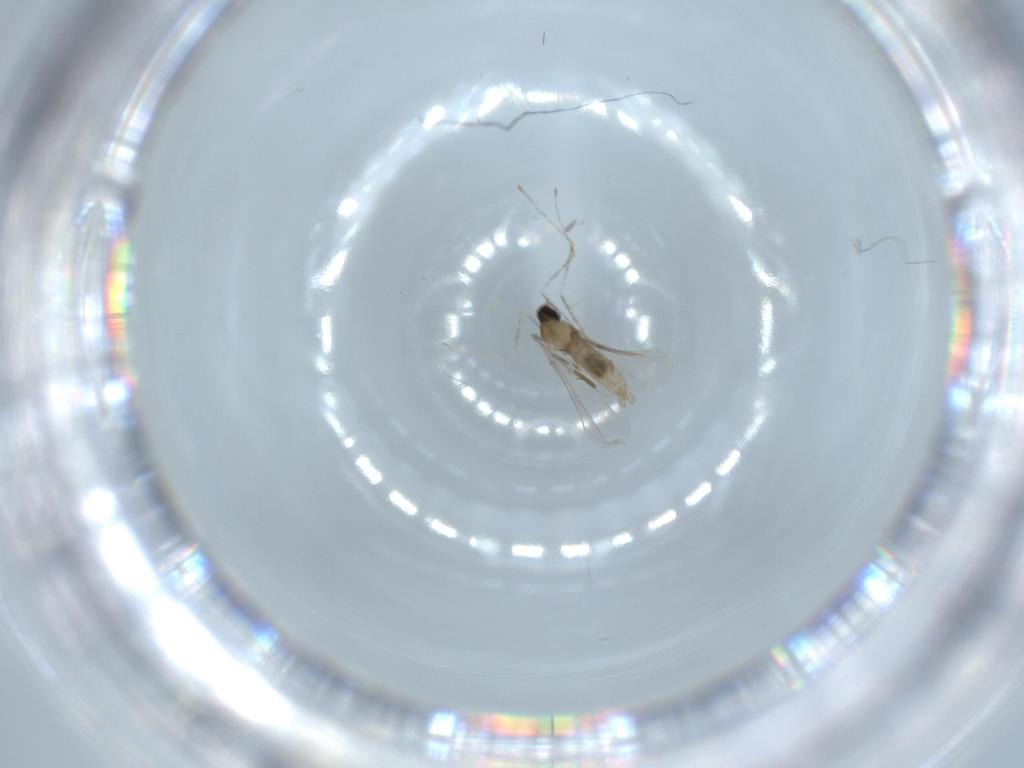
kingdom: Animalia
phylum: Arthropoda
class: Insecta
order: Diptera
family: Cecidomyiidae
